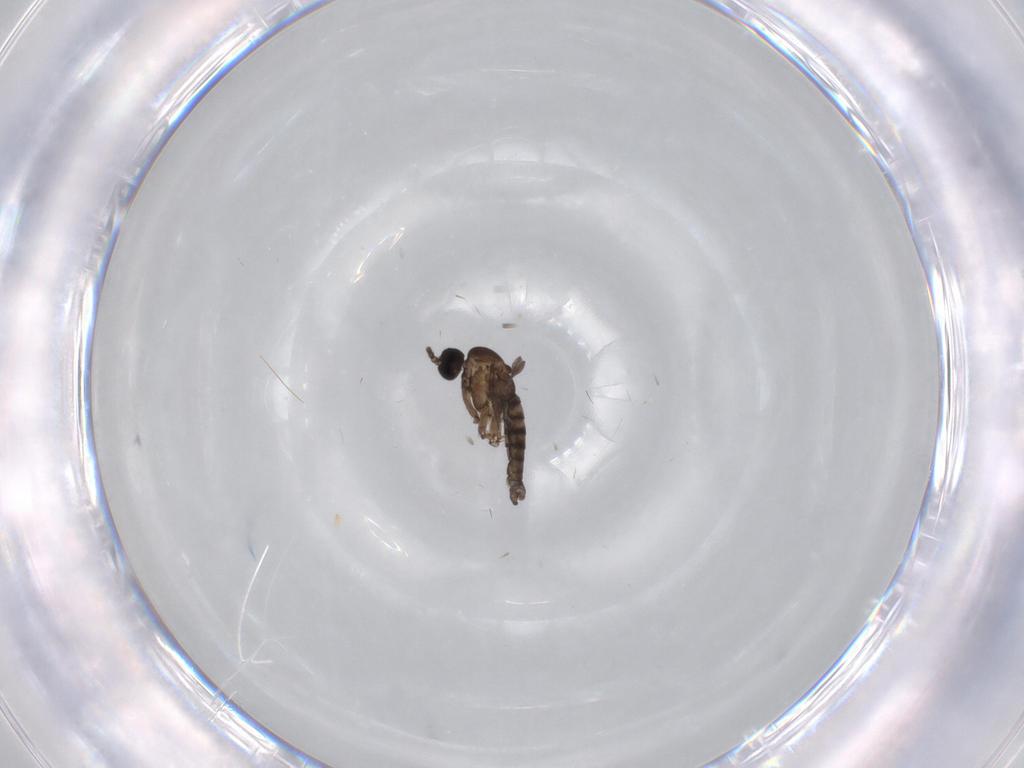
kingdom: Animalia
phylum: Arthropoda
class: Insecta
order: Diptera
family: Sciaridae
